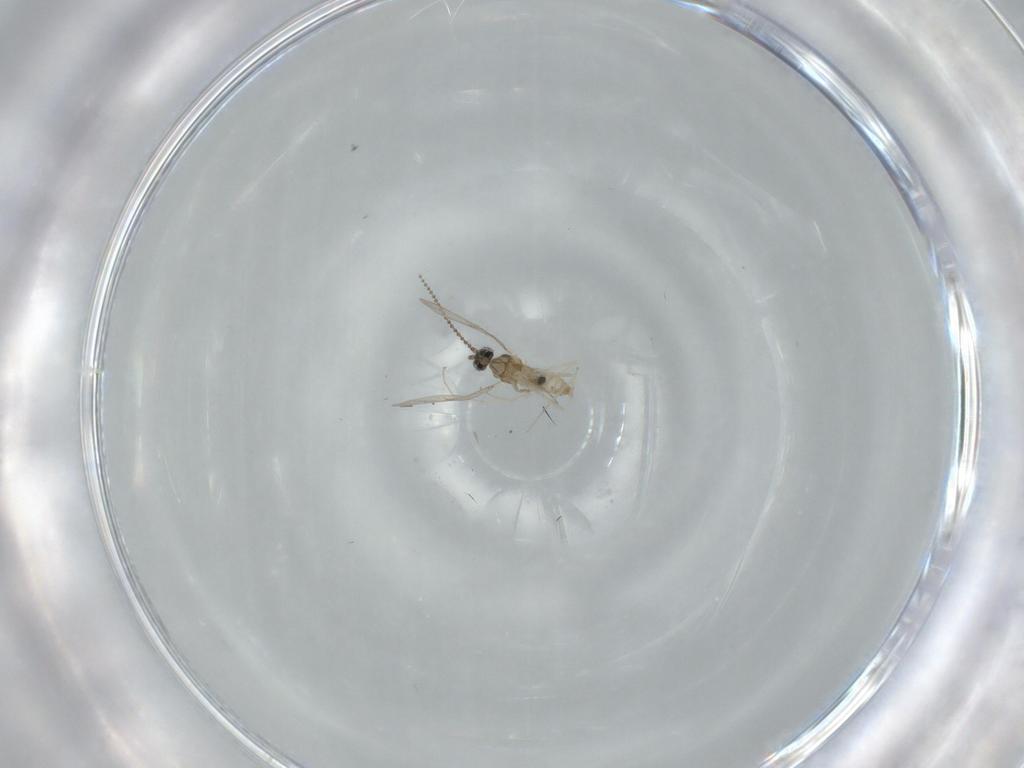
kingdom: Animalia
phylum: Arthropoda
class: Insecta
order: Diptera
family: Cecidomyiidae
